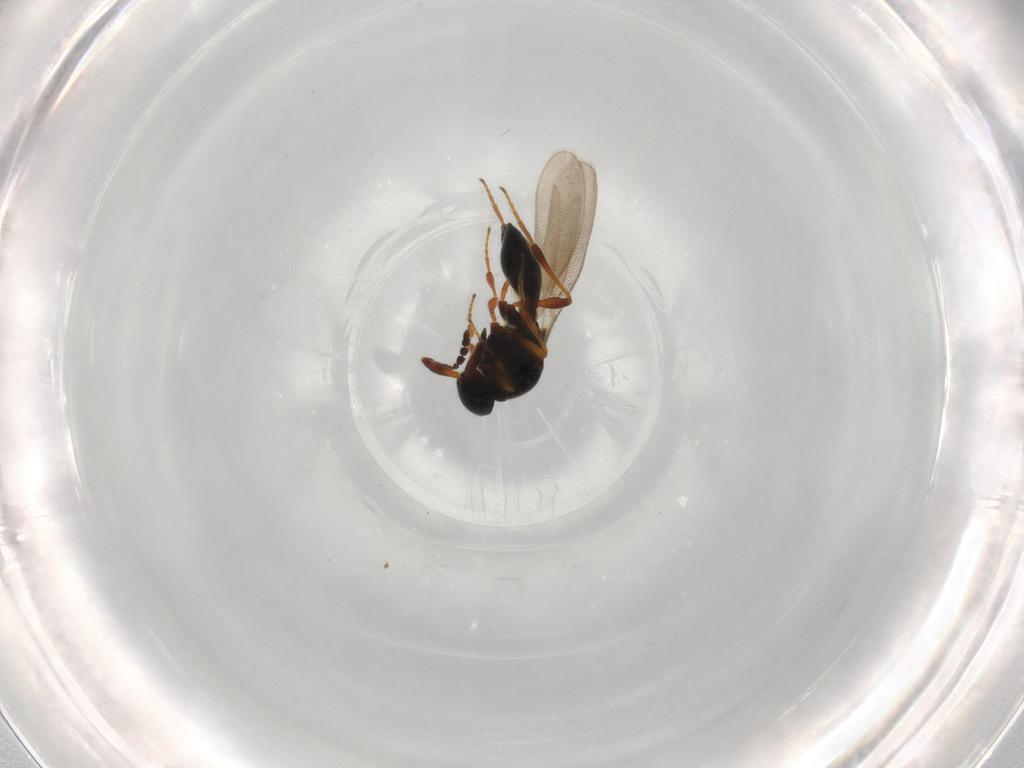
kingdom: Animalia
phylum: Arthropoda
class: Insecta
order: Hymenoptera
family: Platygastridae
